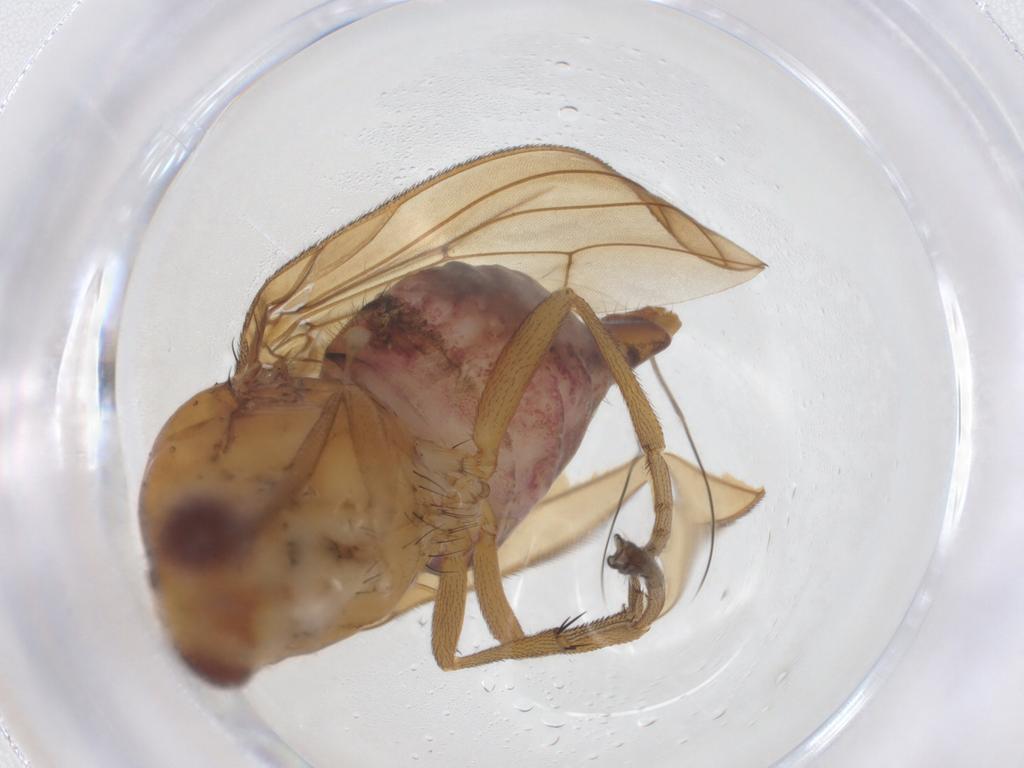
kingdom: Animalia
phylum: Arthropoda
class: Insecta
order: Diptera
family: Sciaridae
